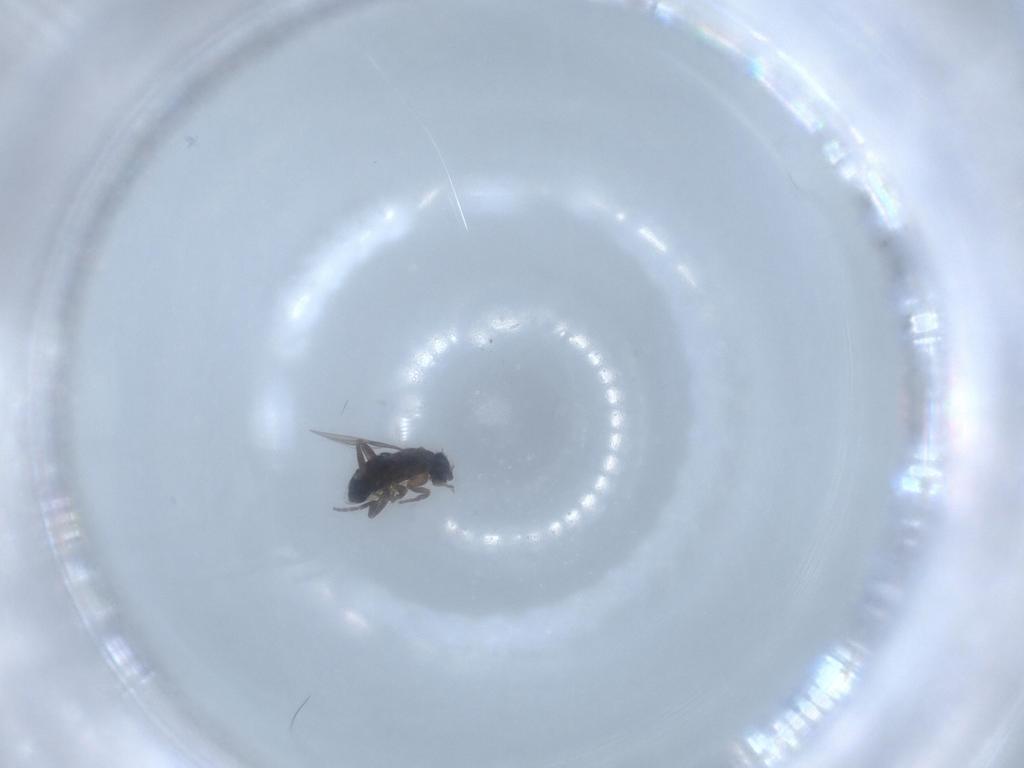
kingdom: Animalia
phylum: Arthropoda
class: Insecta
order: Diptera
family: Phoridae
